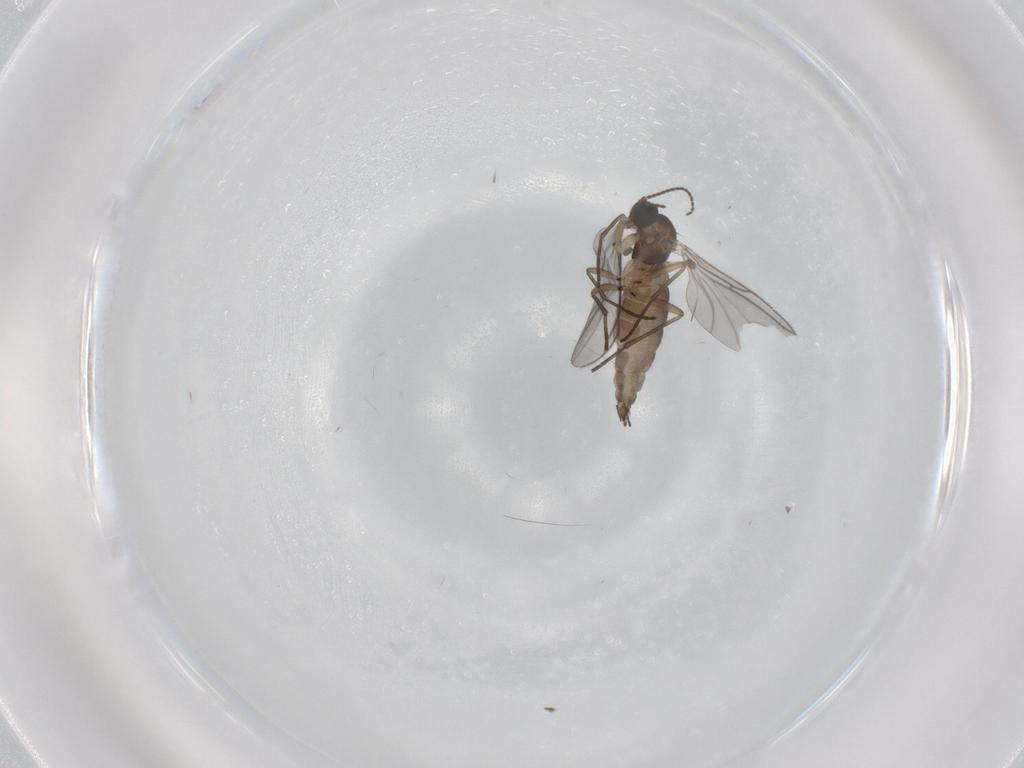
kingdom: Animalia
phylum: Arthropoda
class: Insecta
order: Diptera
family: Sciaridae
